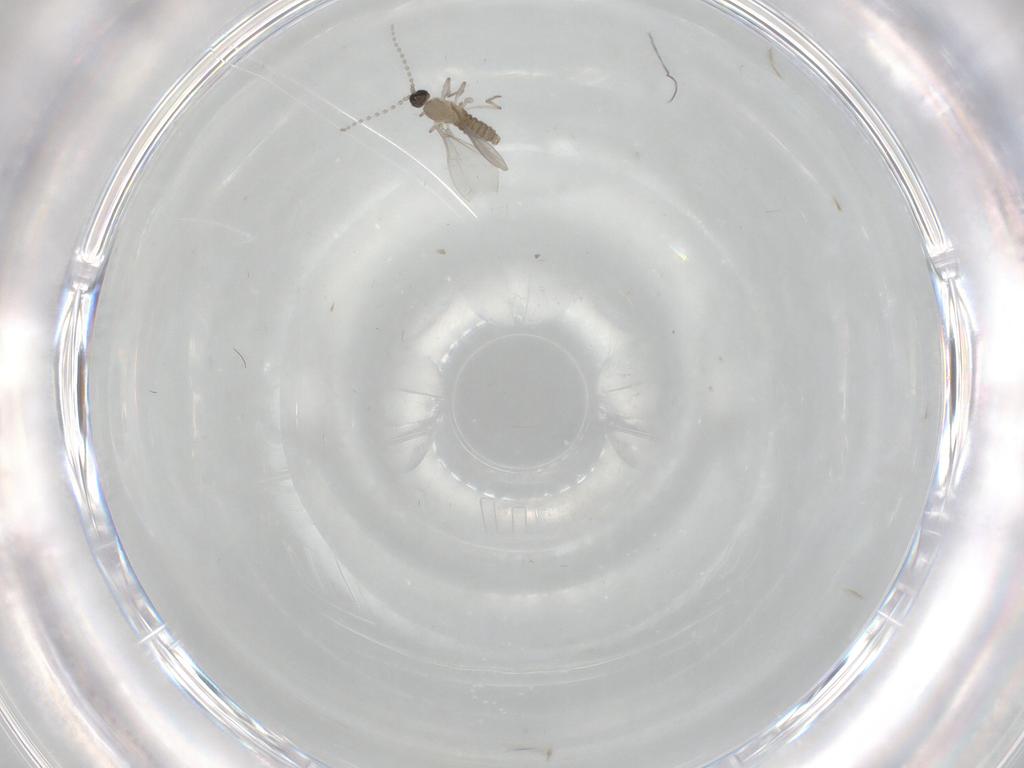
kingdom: Animalia
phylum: Arthropoda
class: Insecta
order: Diptera
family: Cecidomyiidae
